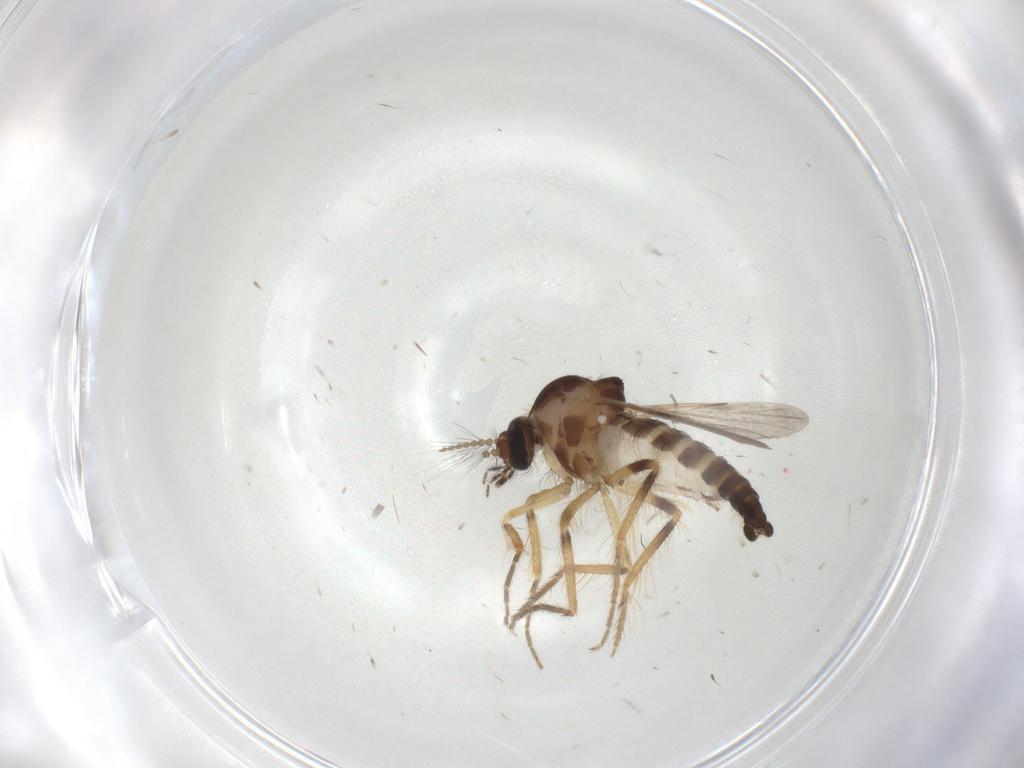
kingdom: Animalia
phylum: Arthropoda
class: Insecta
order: Diptera
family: Ceratopogonidae
